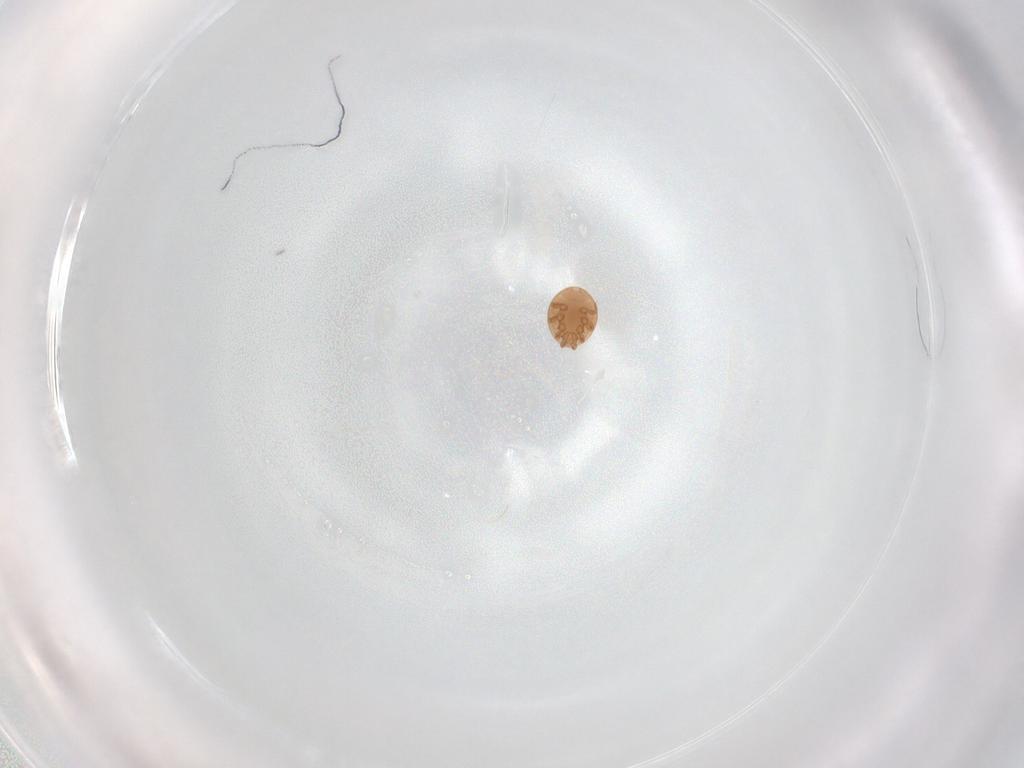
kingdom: Animalia
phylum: Arthropoda
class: Arachnida
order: Mesostigmata
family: Trematuridae
